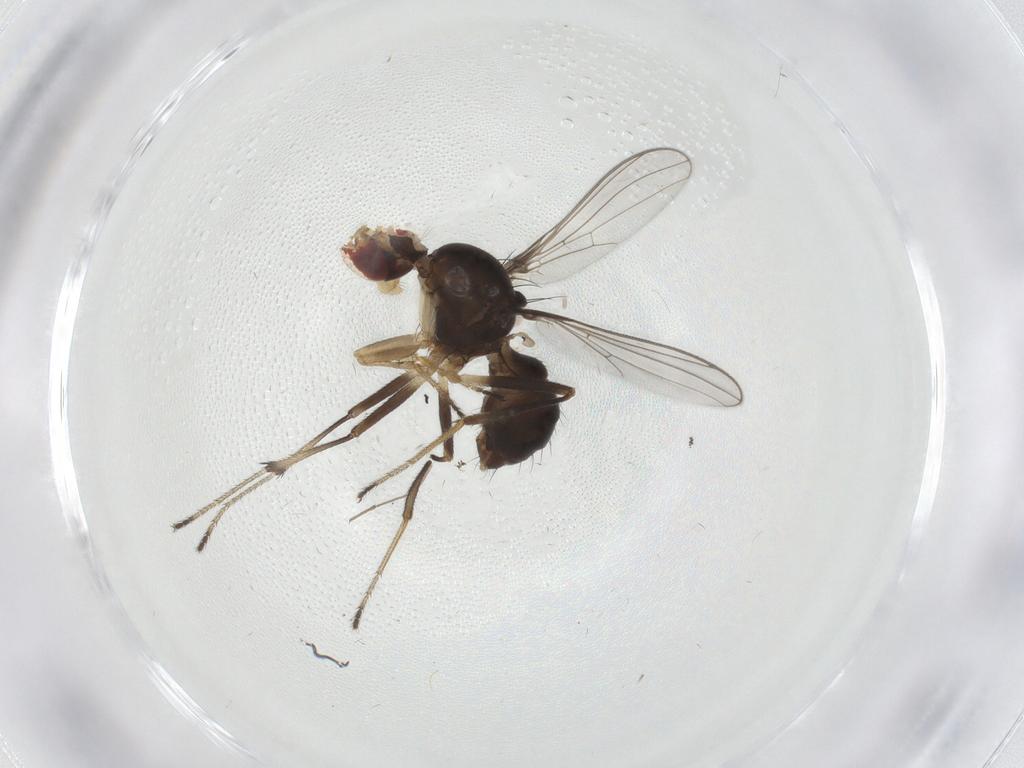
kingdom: Animalia
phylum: Arthropoda
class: Insecta
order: Diptera
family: Sepsidae
